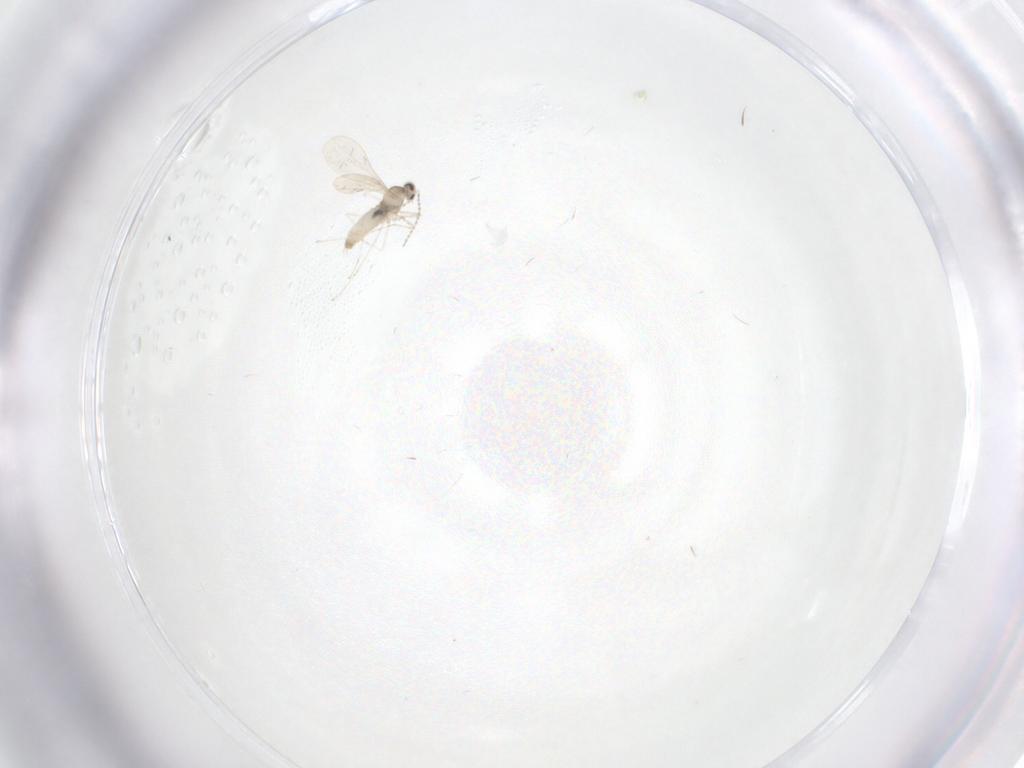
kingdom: Animalia
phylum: Arthropoda
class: Insecta
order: Diptera
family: Cecidomyiidae
